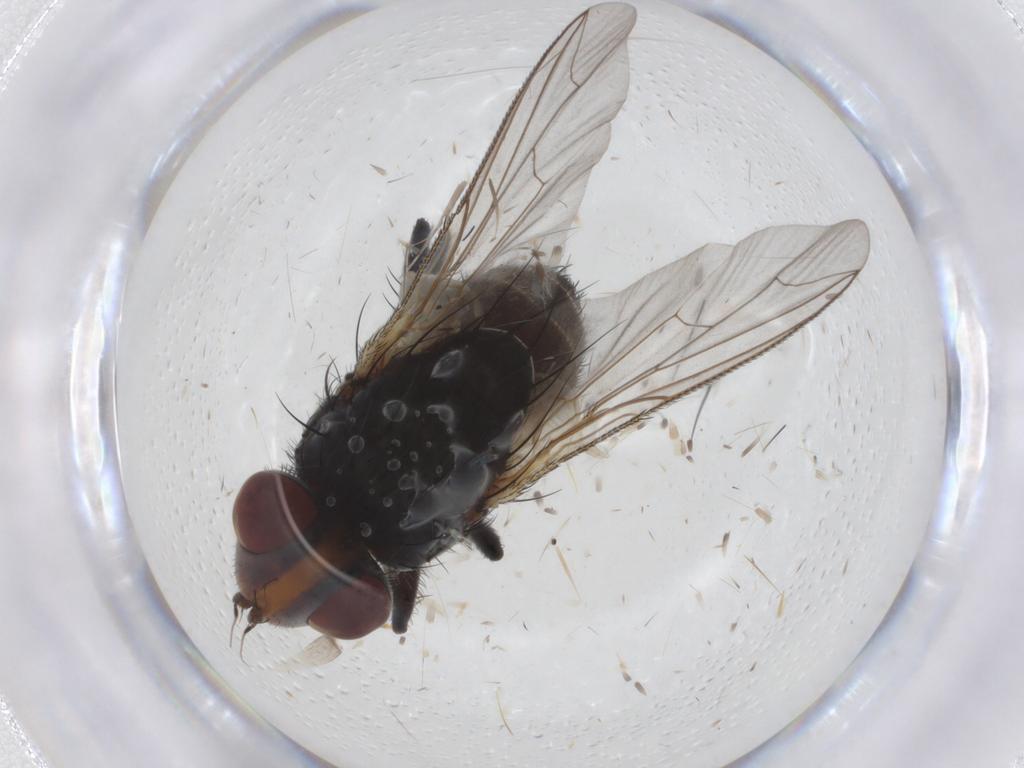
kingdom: Animalia
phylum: Arthropoda
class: Insecta
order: Diptera
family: Sarcophagidae
